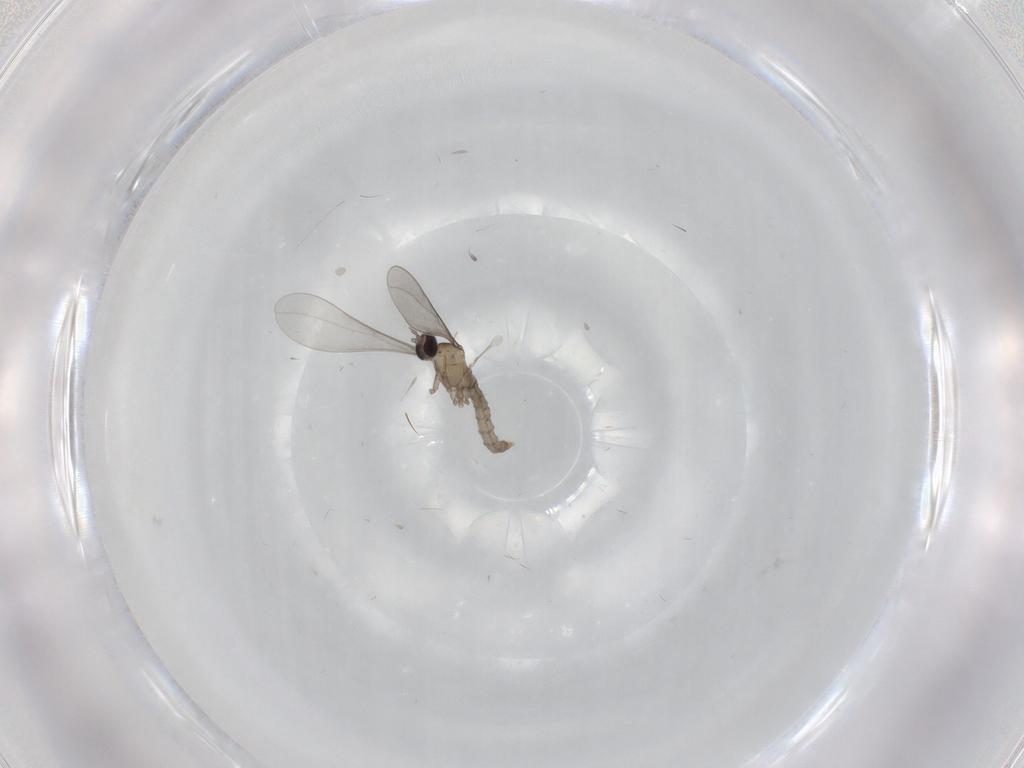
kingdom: Animalia
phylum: Arthropoda
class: Insecta
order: Diptera
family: Cecidomyiidae
